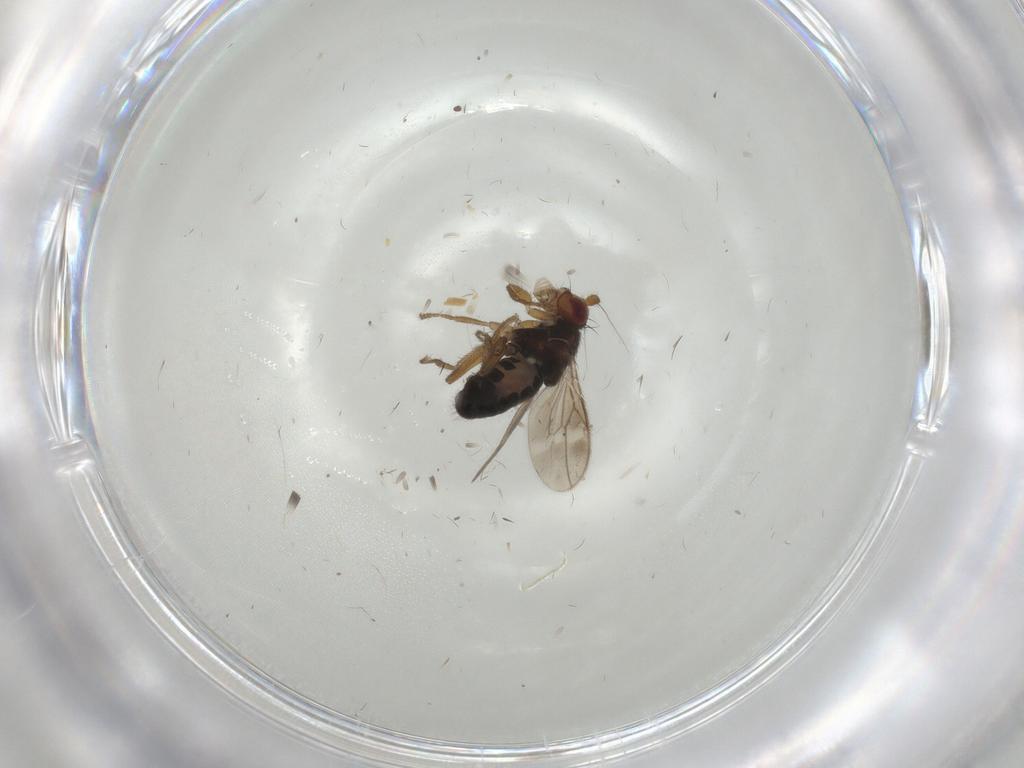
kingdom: Animalia
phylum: Arthropoda
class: Insecta
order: Diptera
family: Sphaeroceridae
